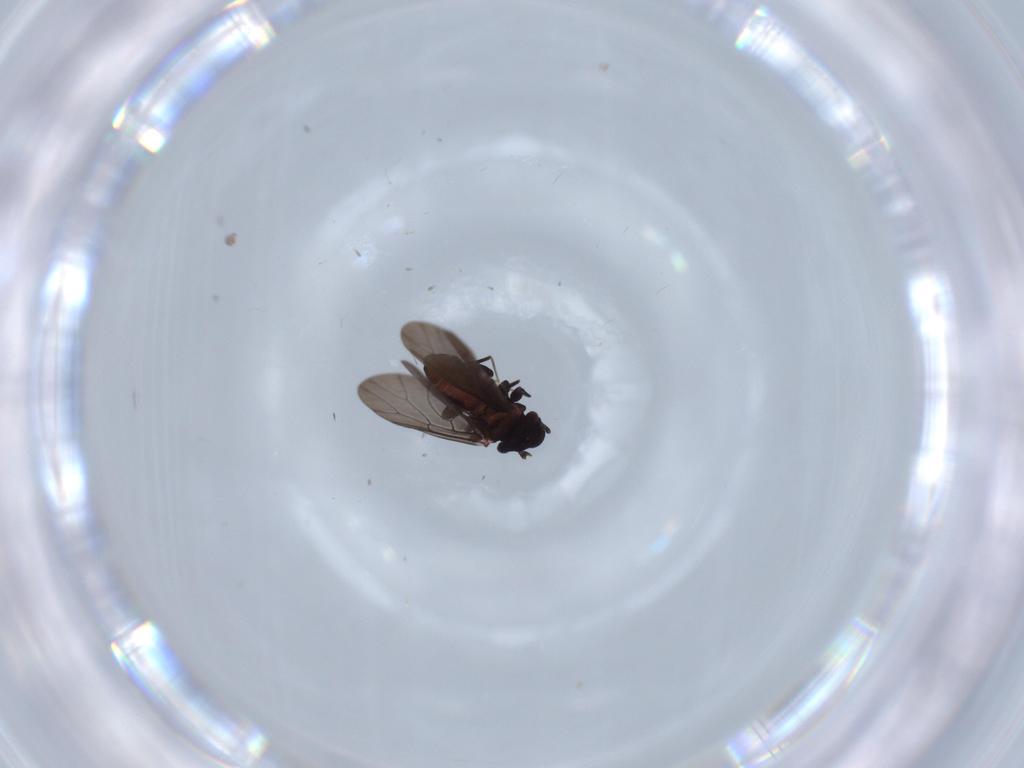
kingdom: Animalia
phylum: Arthropoda
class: Insecta
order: Psocodea
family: Lepidopsocidae
